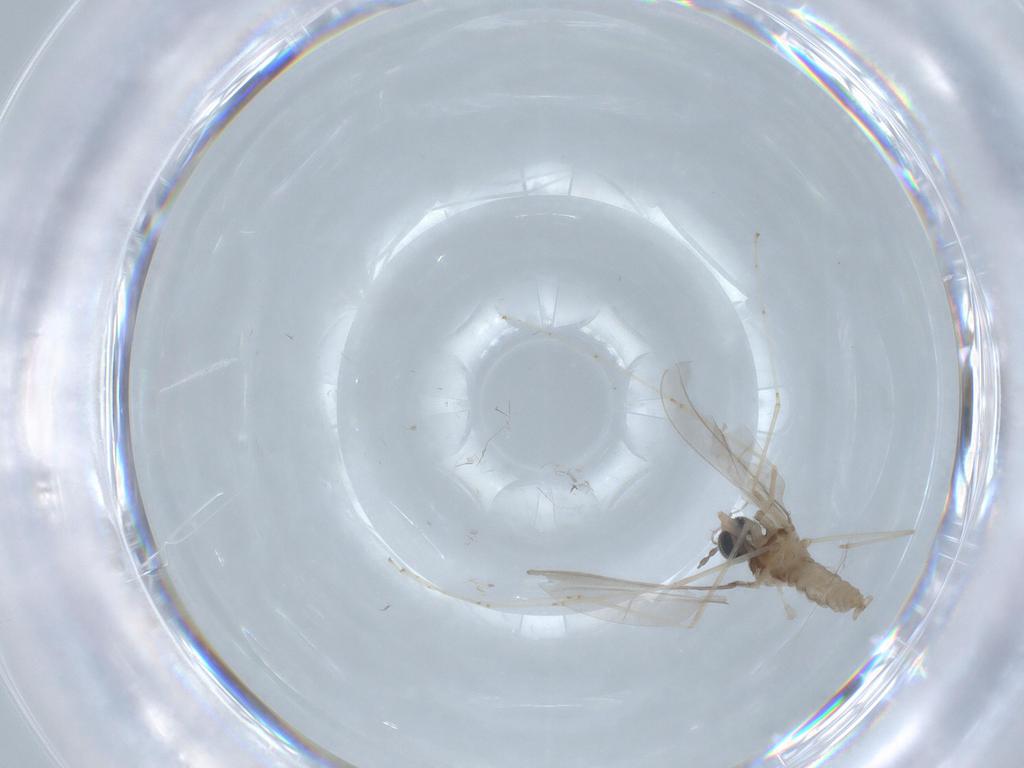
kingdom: Animalia
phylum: Arthropoda
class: Insecta
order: Diptera
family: Cecidomyiidae
